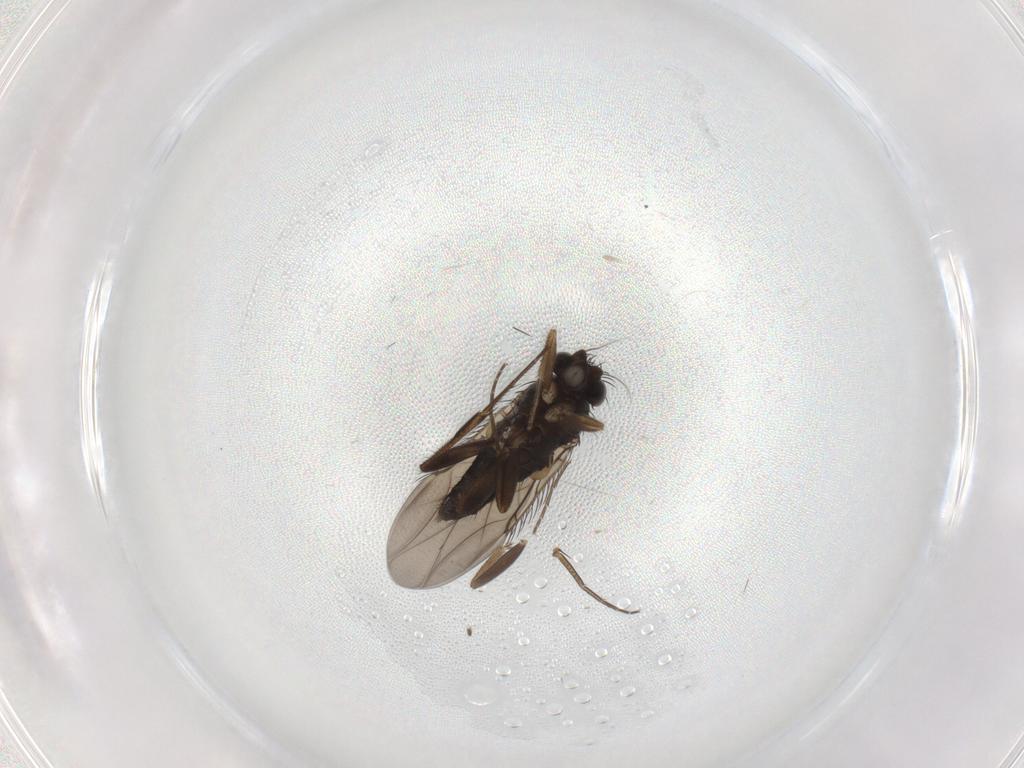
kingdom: Animalia
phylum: Arthropoda
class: Insecta
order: Diptera
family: Phoridae
